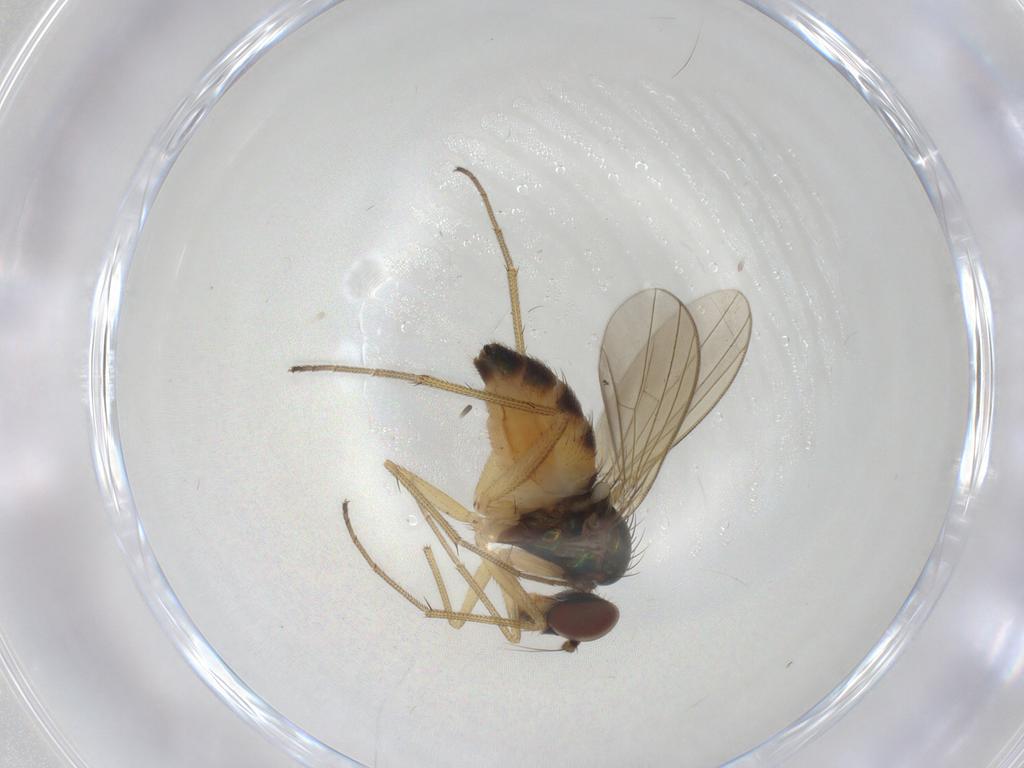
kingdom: Animalia
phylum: Arthropoda
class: Insecta
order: Diptera
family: Dolichopodidae
